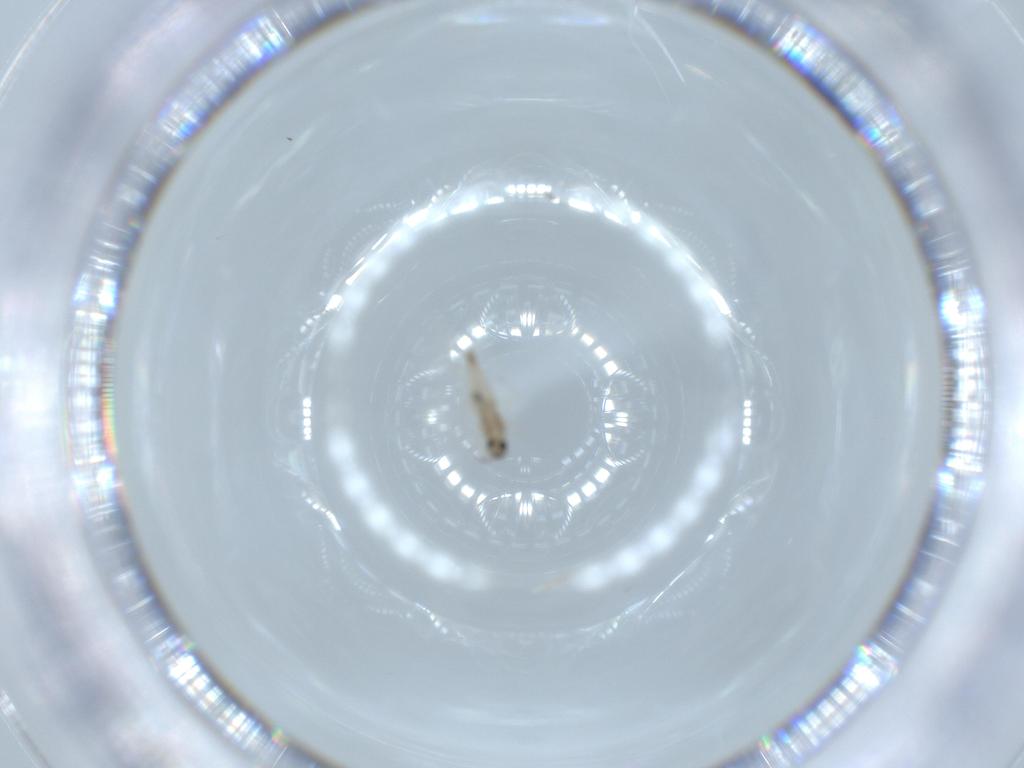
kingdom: Animalia
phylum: Arthropoda
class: Insecta
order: Diptera
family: Cecidomyiidae
